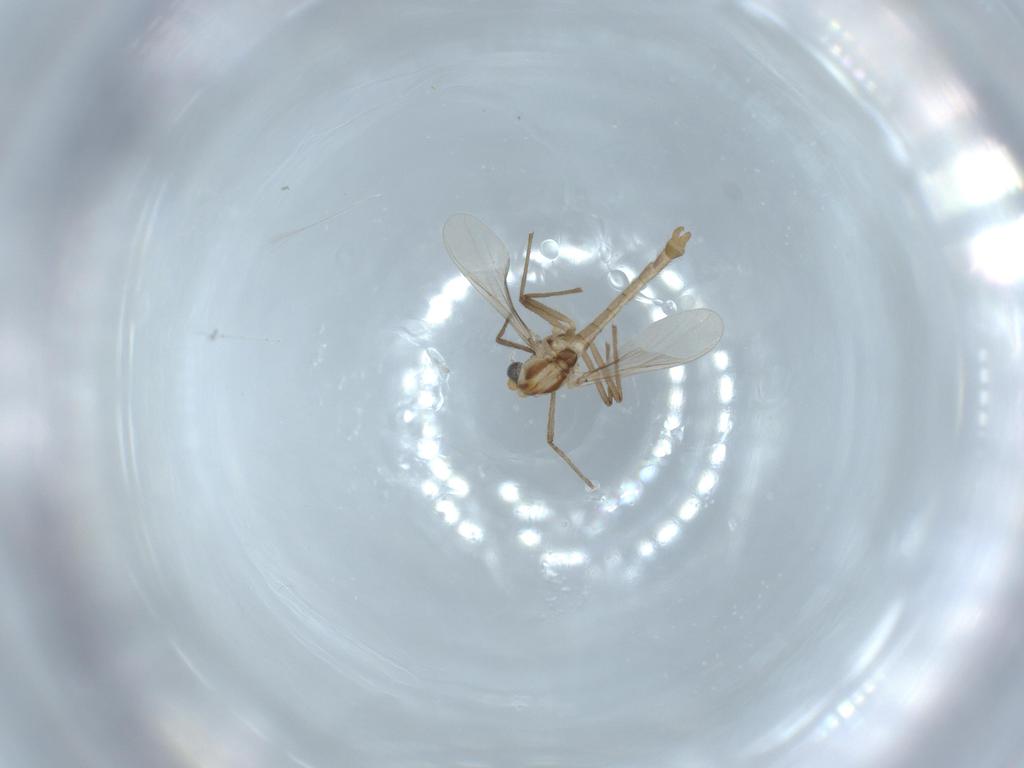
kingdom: Animalia
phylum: Arthropoda
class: Insecta
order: Diptera
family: Chironomidae
